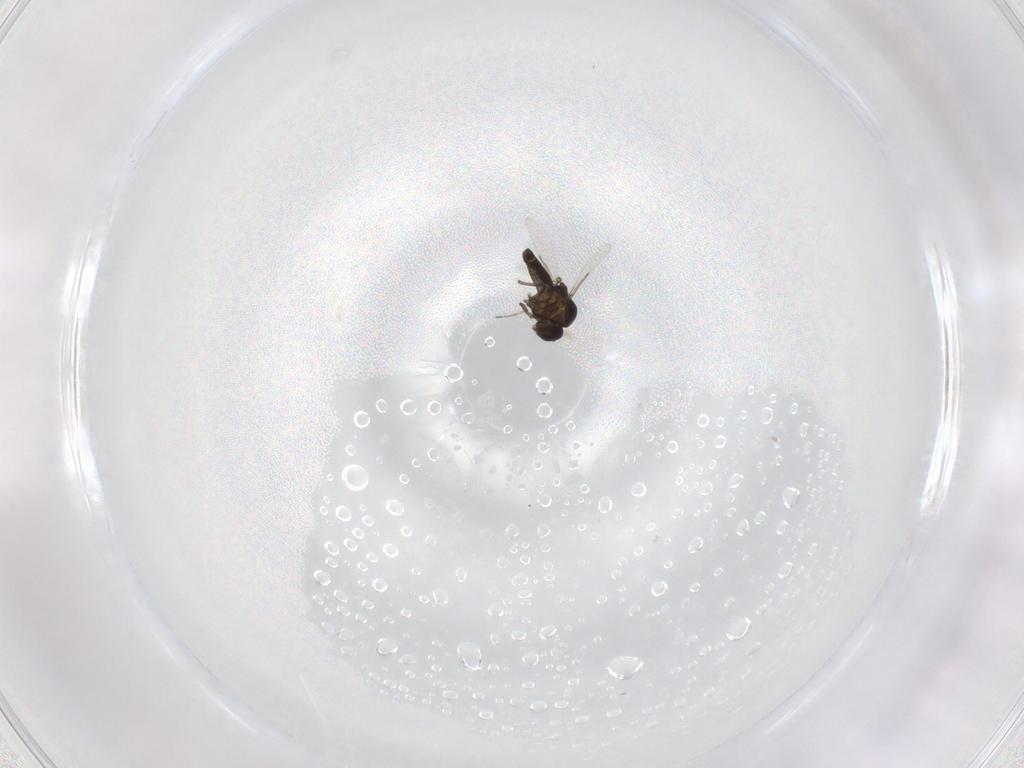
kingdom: Animalia
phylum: Arthropoda
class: Insecta
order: Diptera
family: Ceratopogonidae
